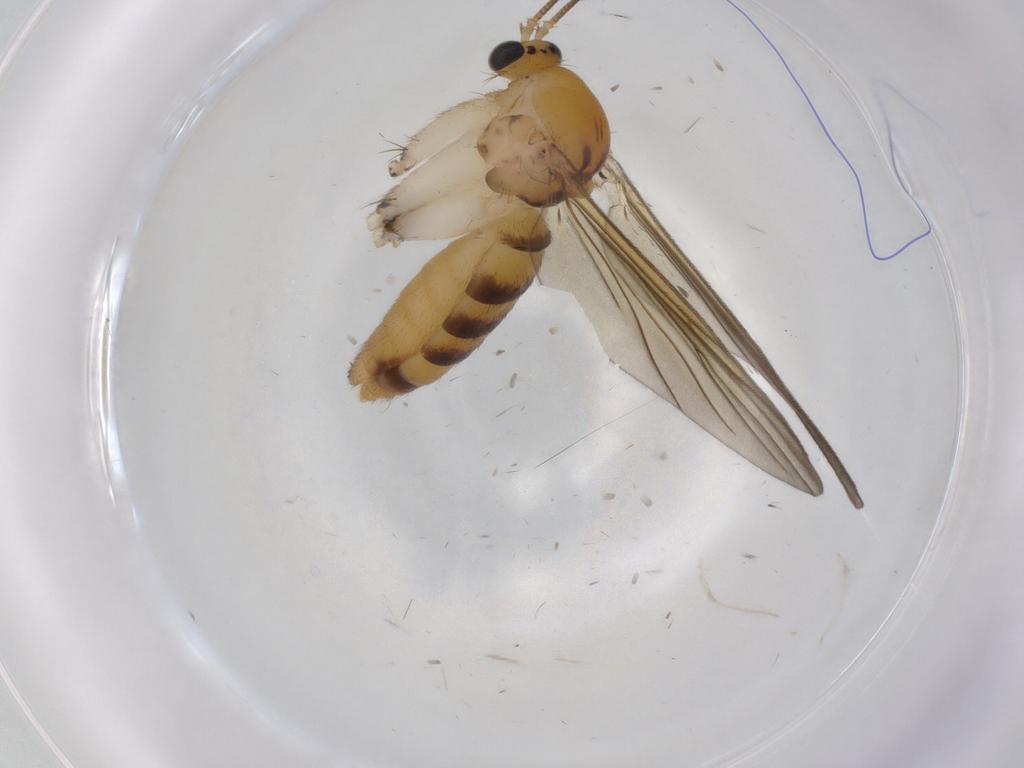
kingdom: Animalia
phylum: Arthropoda
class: Insecta
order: Diptera
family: Mycetophilidae
